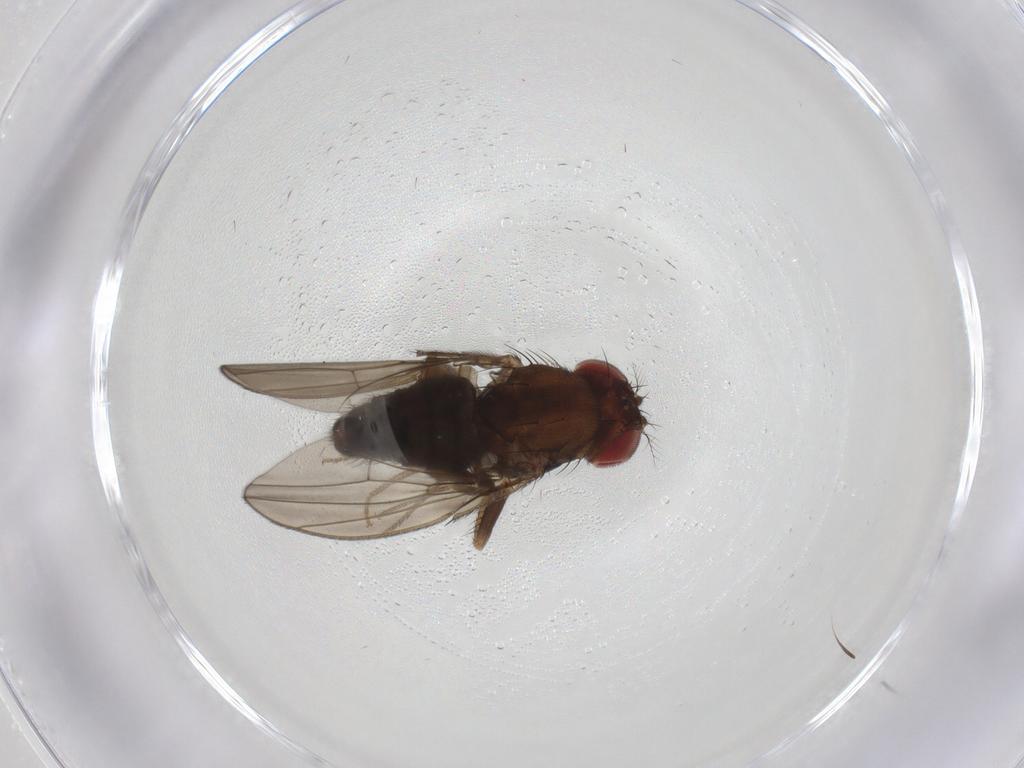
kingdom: Animalia
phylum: Arthropoda
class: Insecta
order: Diptera
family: Drosophilidae
